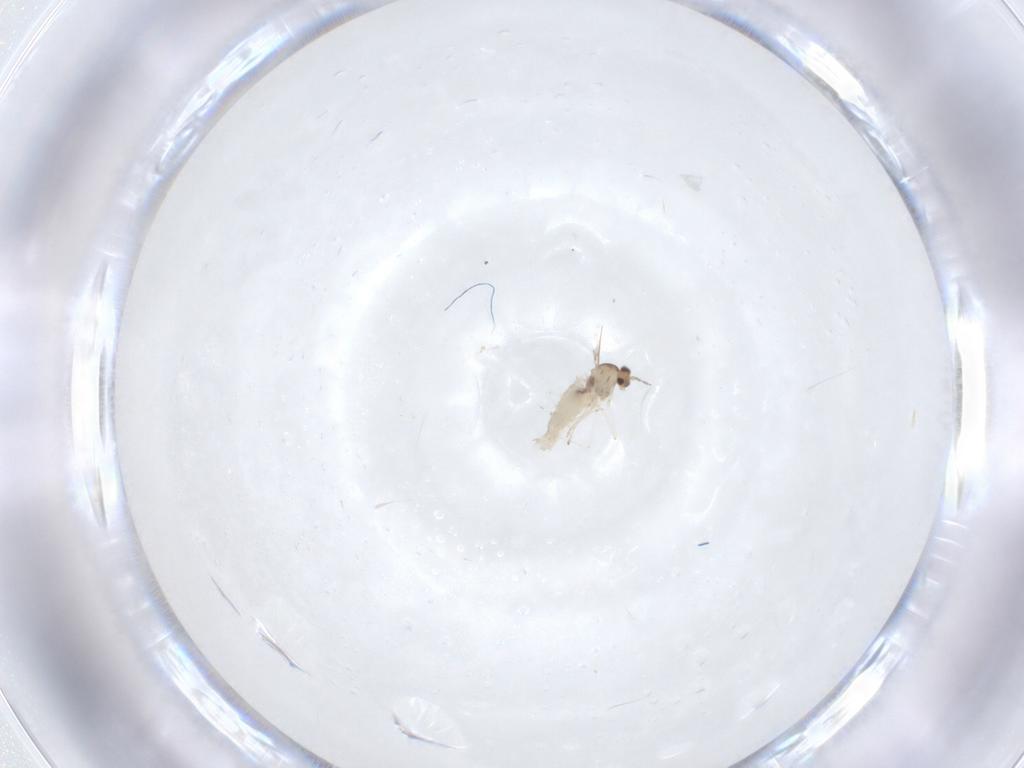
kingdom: Animalia
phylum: Arthropoda
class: Insecta
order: Diptera
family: Cecidomyiidae
